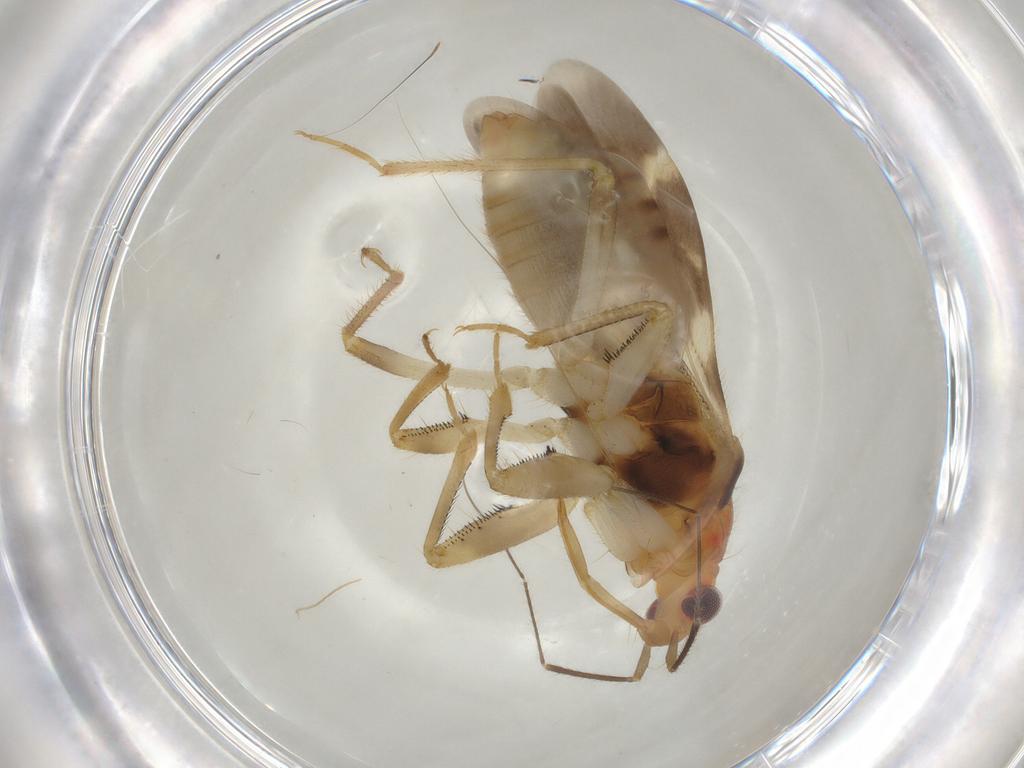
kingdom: Animalia
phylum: Arthropoda
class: Insecta
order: Hemiptera
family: Nabidae
